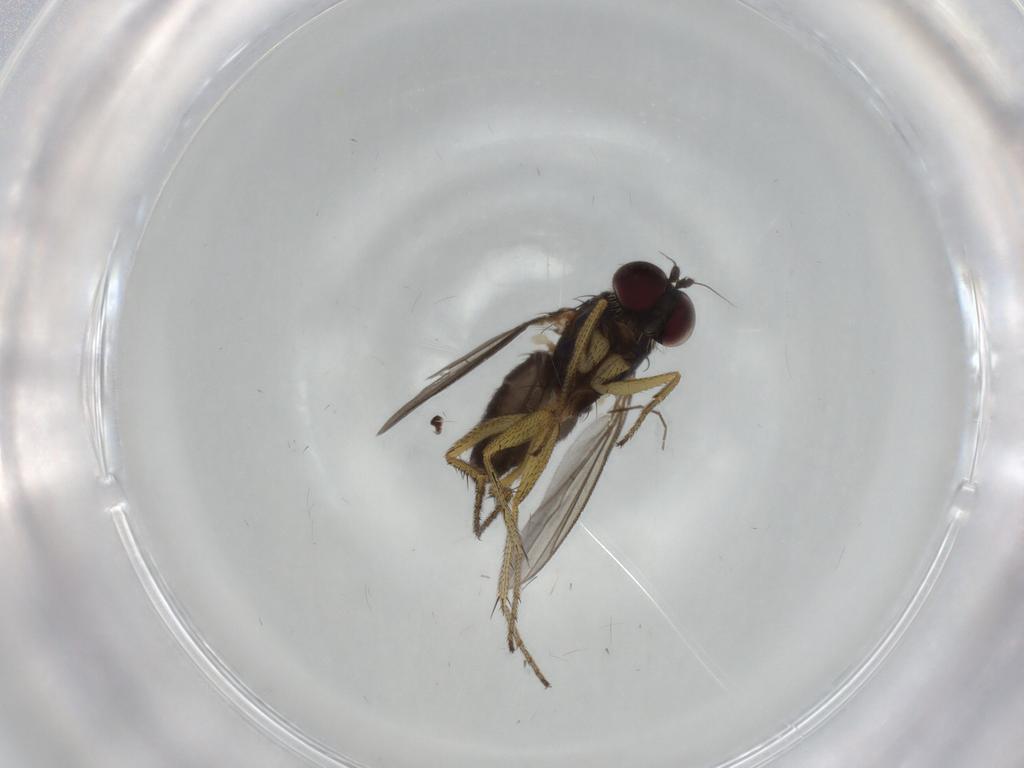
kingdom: Animalia
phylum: Arthropoda
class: Insecta
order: Diptera
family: Dolichopodidae
